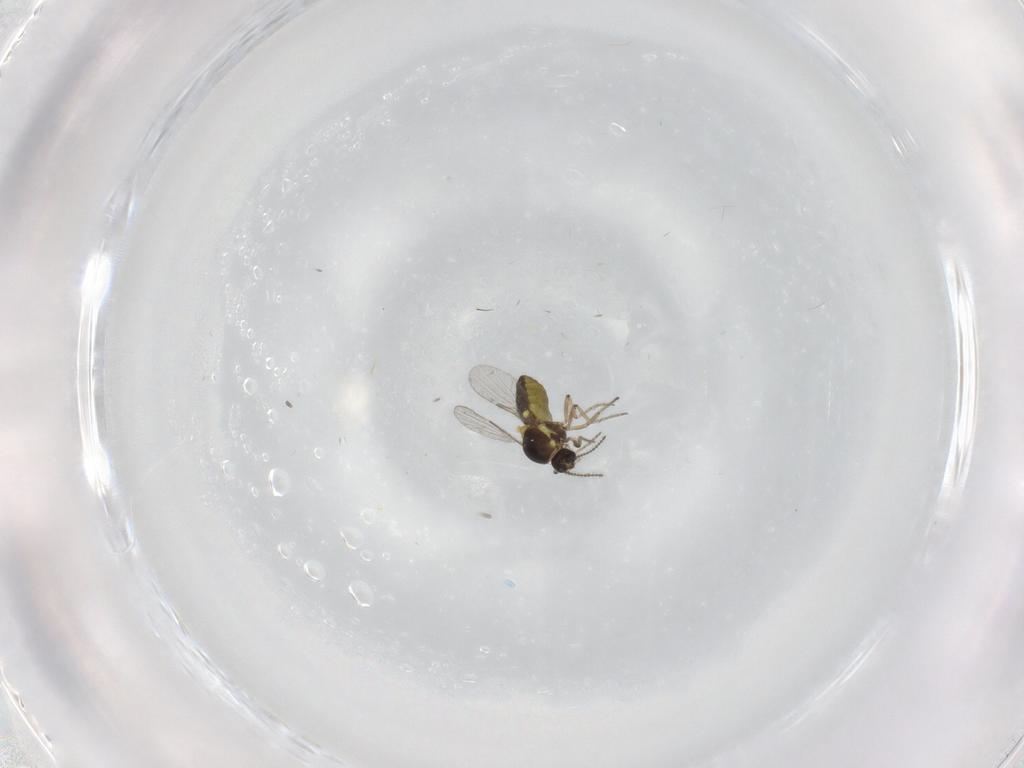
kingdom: Animalia
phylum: Arthropoda
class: Insecta
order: Diptera
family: Ceratopogonidae
